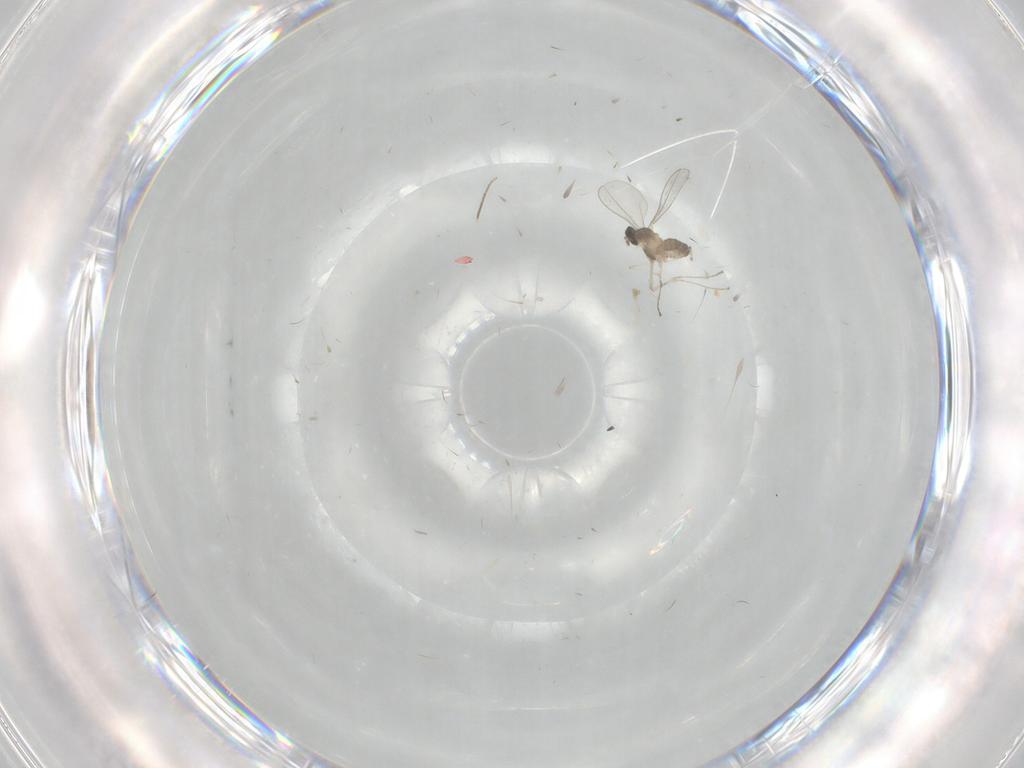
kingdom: Animalia
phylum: Arthropoda
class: Insecta
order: Diptera
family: Cecidomyiidae
